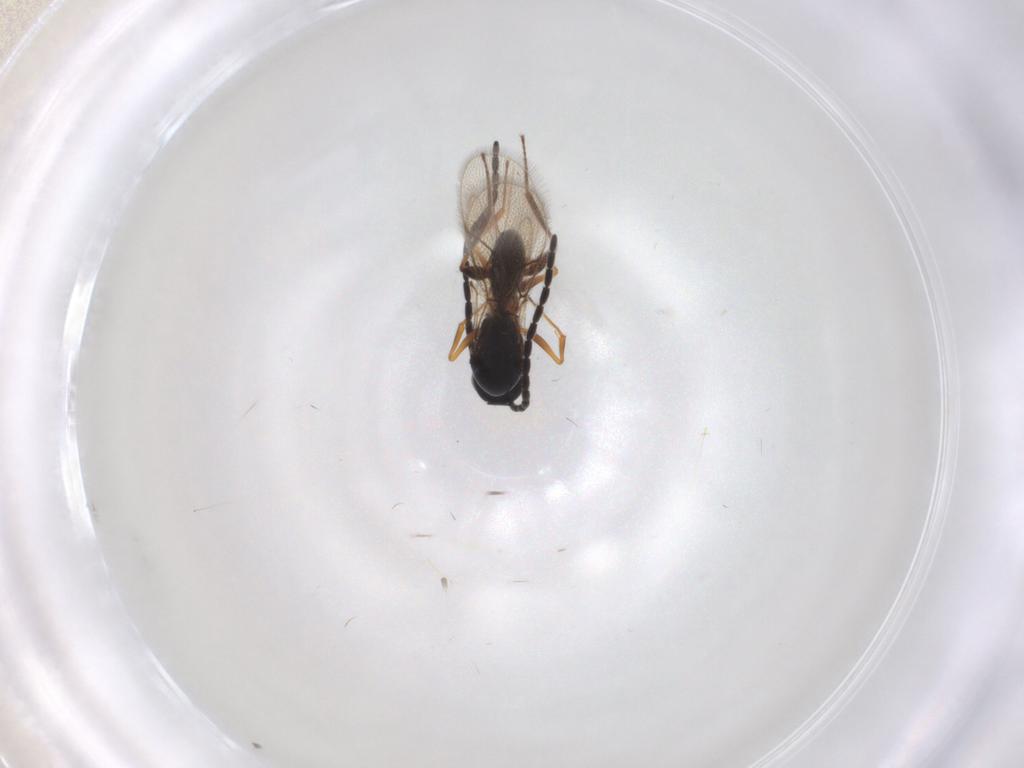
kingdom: Animalia
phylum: Arthropoda
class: Insecta
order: Hymenoptera
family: Figitidae
